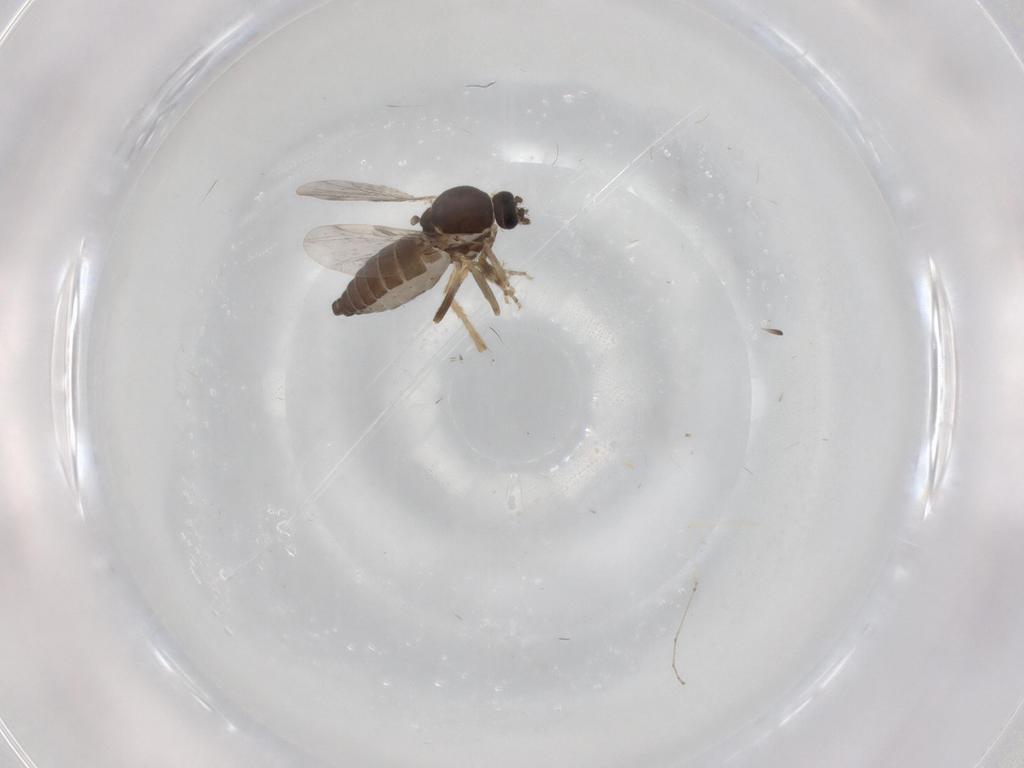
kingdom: Animalia
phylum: Arthropoda
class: Insecta
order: Diptera
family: Ceratopogonidae
